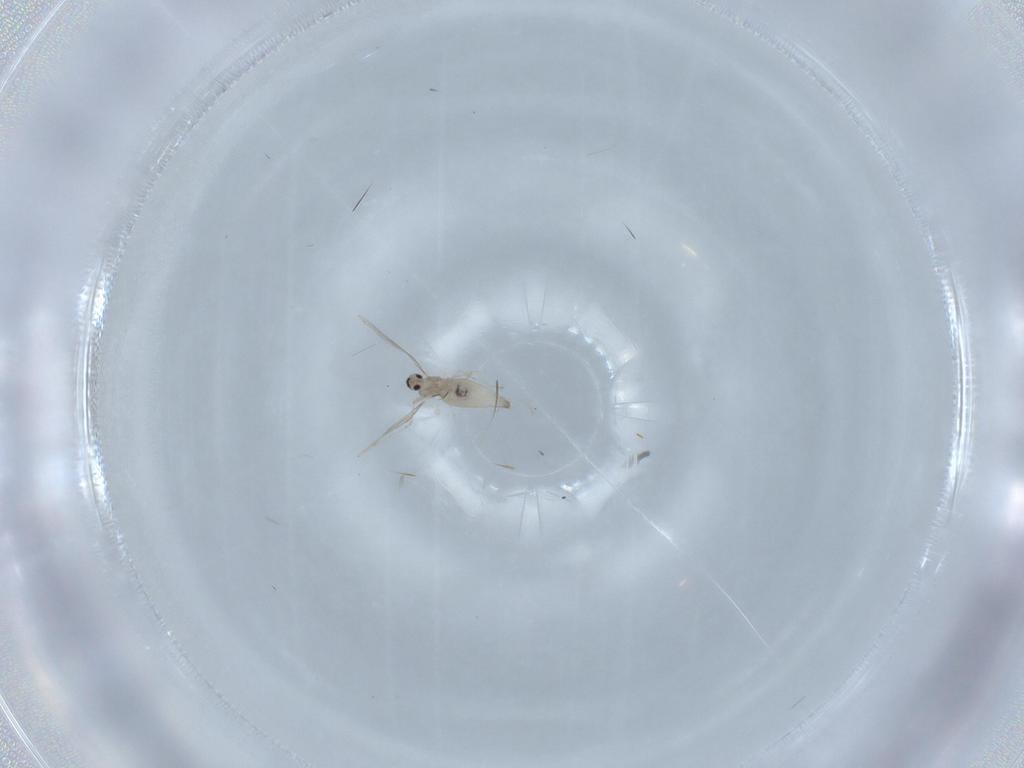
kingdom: Animalia
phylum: Arthropoda
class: Insecta
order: Diptera
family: Cecidomyiidae
